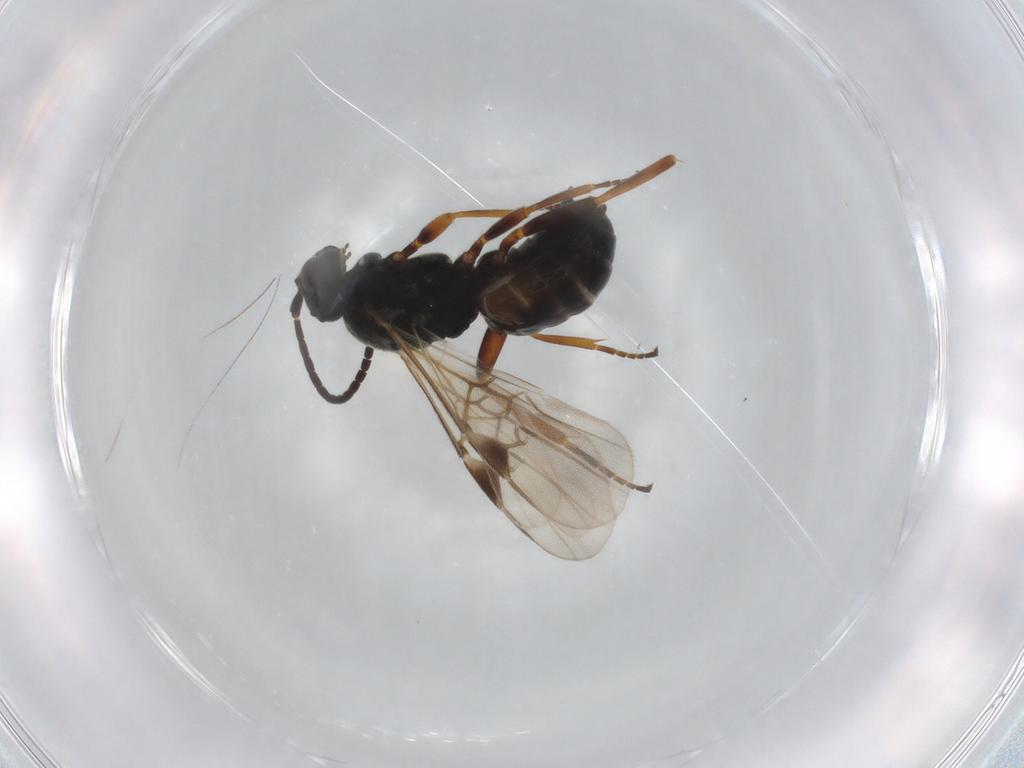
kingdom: Animalia
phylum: Arthropoda
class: Insecta
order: Hymenoptera
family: Braconidae
